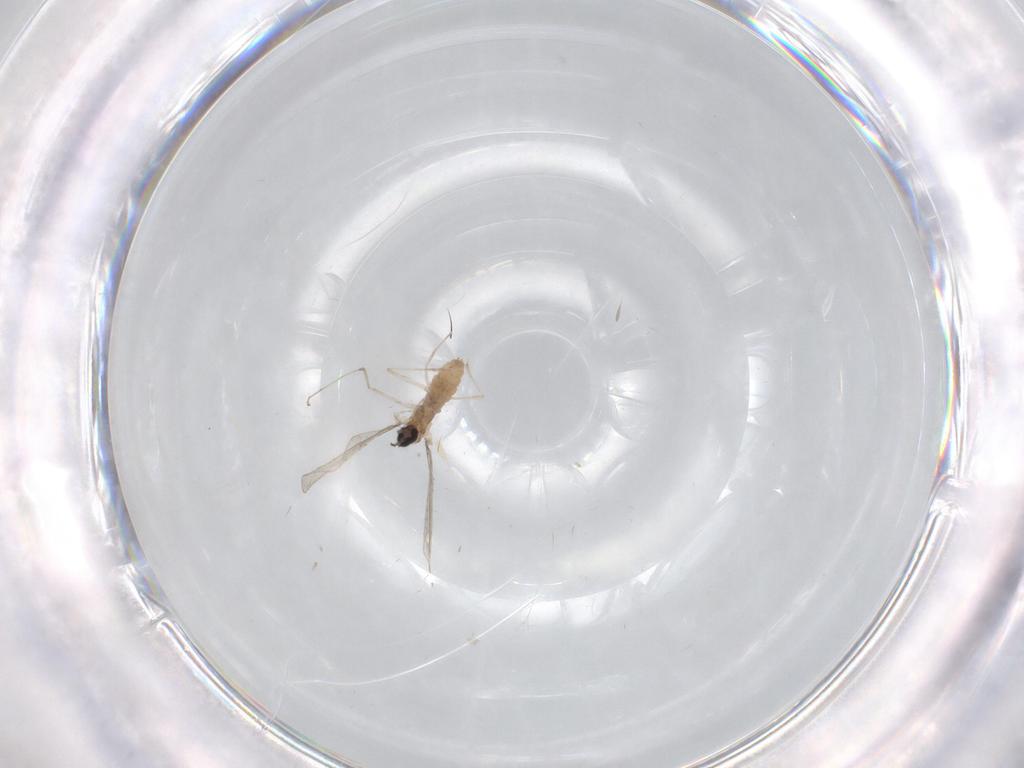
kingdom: Animalia
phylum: Arthropoda
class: Insecta
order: Diptera
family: Cecidomyiidae
